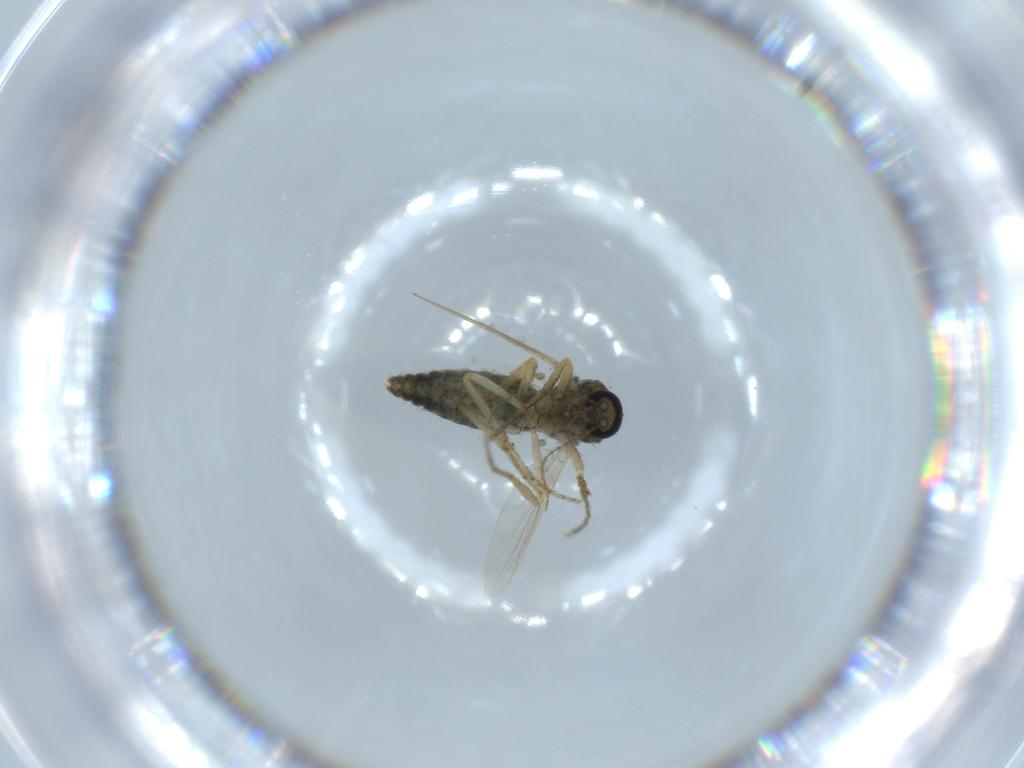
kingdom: Animalia
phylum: Arthropoda
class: Insecta
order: Diptera
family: Ceratopogonidae
